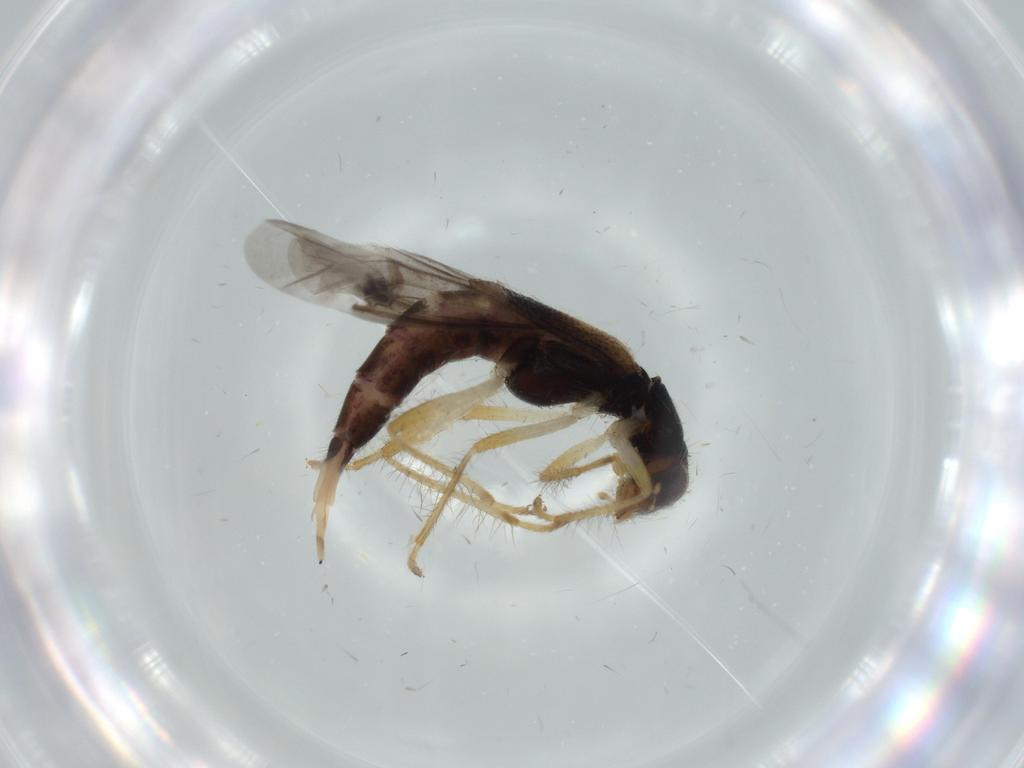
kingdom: Animalia
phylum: Arthropoda
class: Insecta
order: Coleoptera
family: Cleridae
